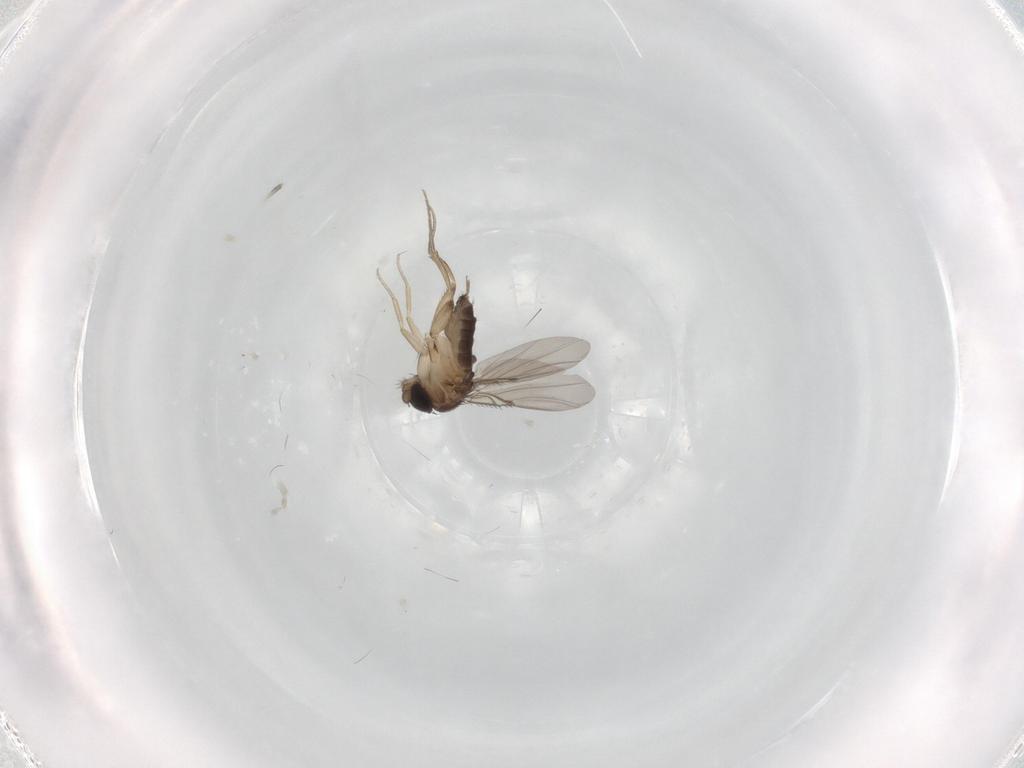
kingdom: Animalia
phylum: Arthropoda
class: Insecta
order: Diptera
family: Phoridae
